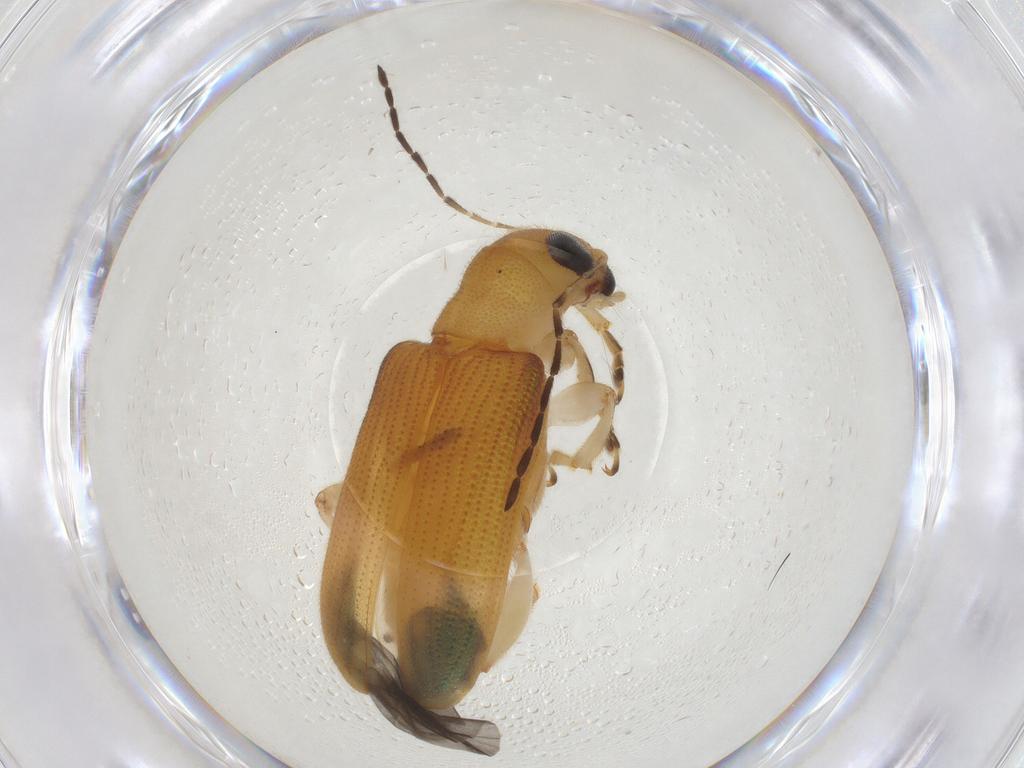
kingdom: Animalia
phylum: Arthropoda
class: Insecta
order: Coleoptera
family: Chrysomelidae
